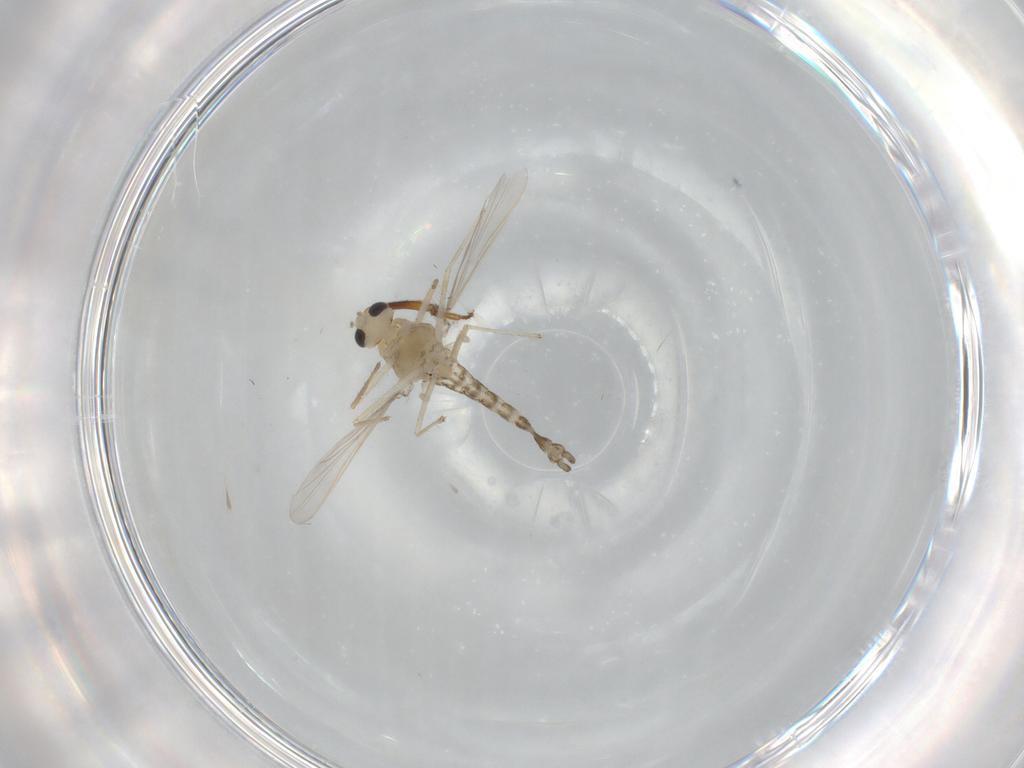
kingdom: Animalia
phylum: Arthropoda
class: Insecta
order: Diptera
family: Chironomidae
